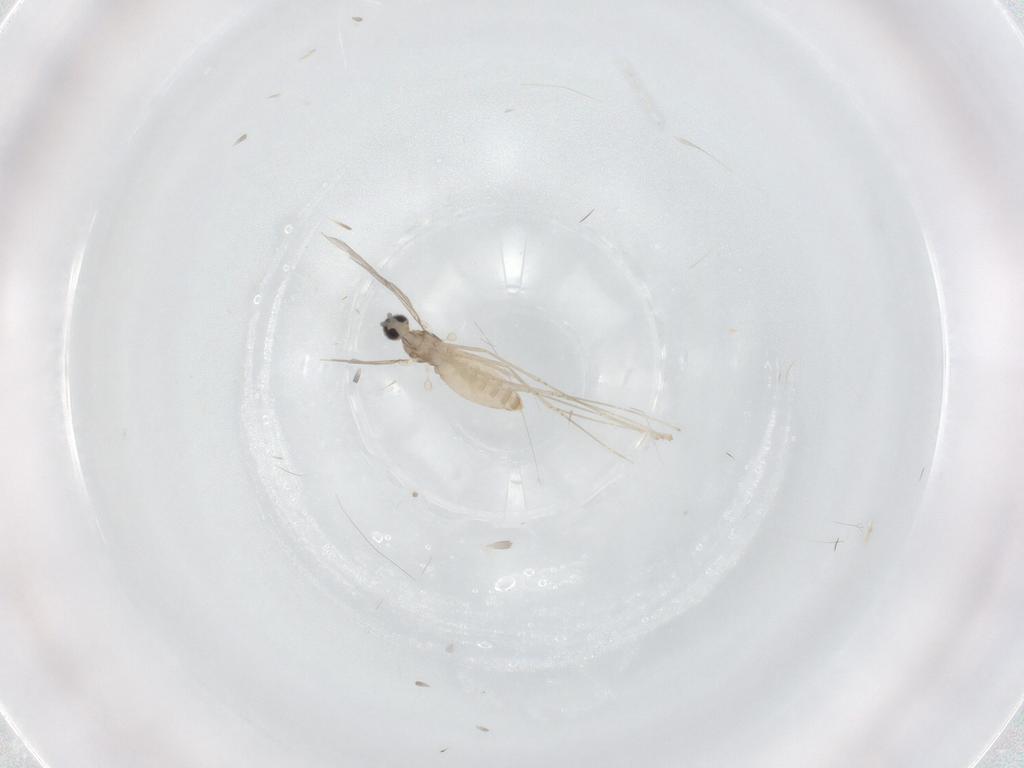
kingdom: Animalia
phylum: Arthropoda
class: Insecta
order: Diptera
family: Cecidomyiidae
